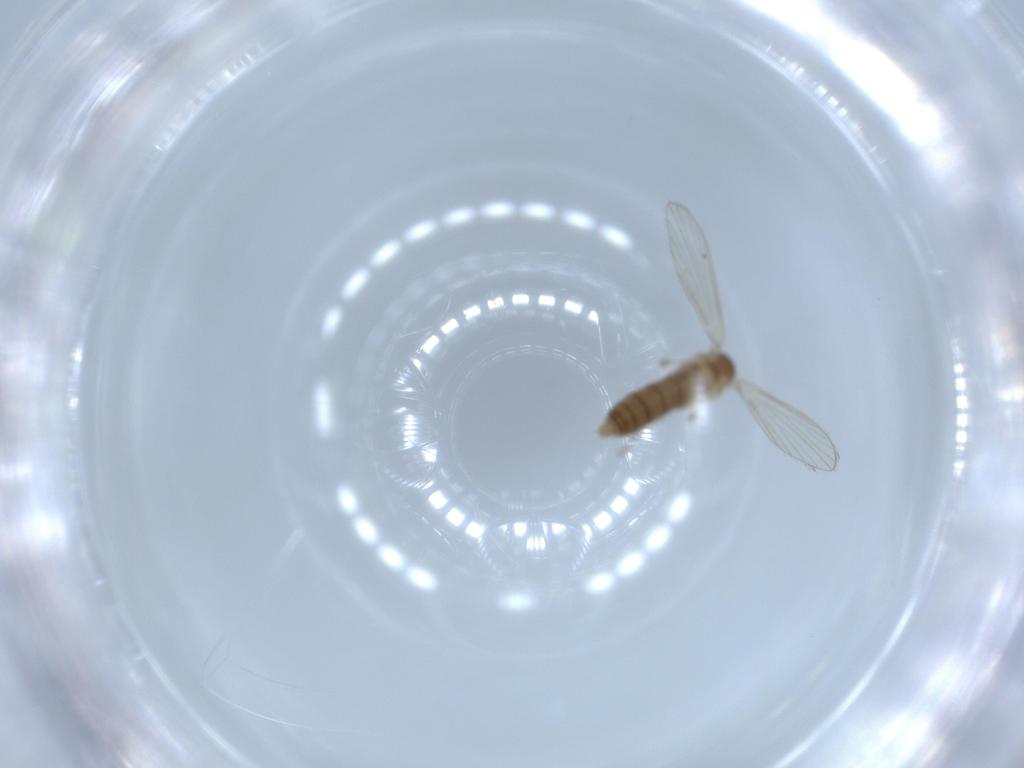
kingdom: Animalia
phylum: Arthropoda
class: Insecta
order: Diptera
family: Psychodidae
